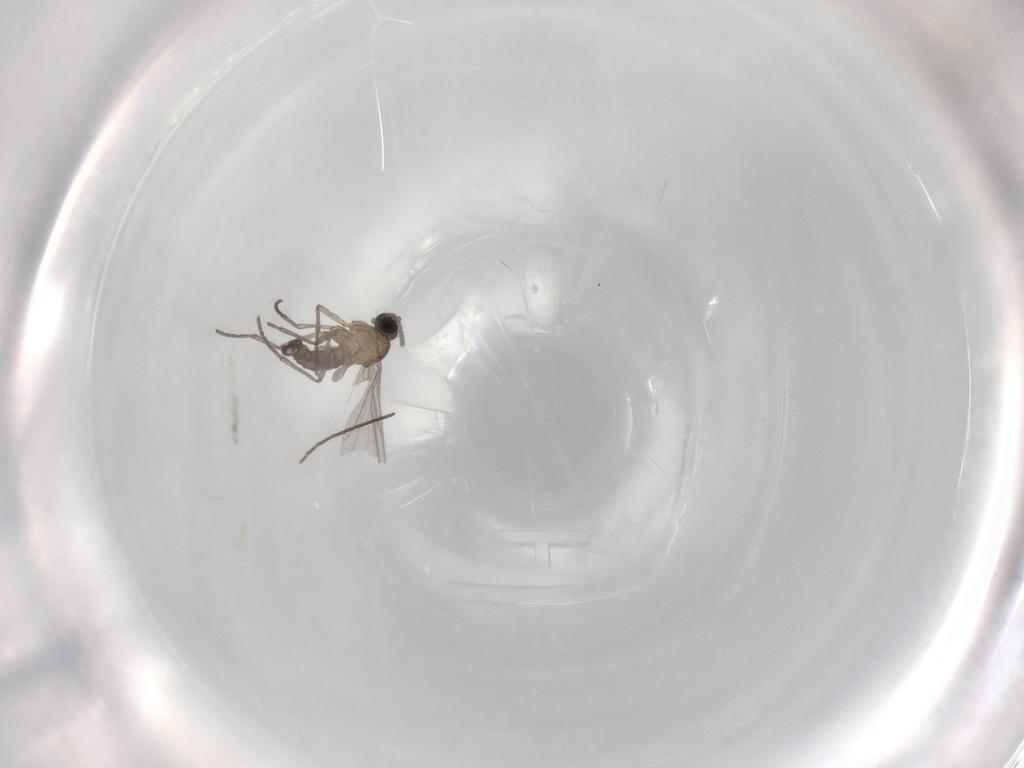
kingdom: Animalia
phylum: Arthropoda
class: Insecta
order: Diptera
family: Sciaridae
